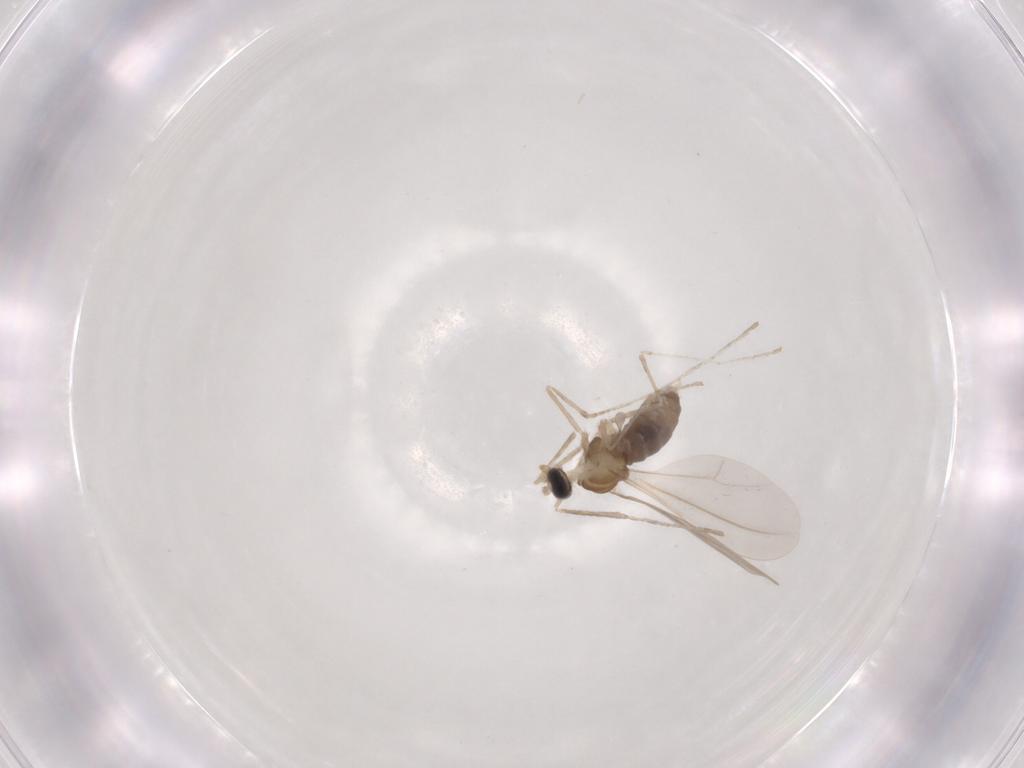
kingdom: Animalia
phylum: Arthropoda
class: Insecta
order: Diptera
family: Cecidomyiidae
